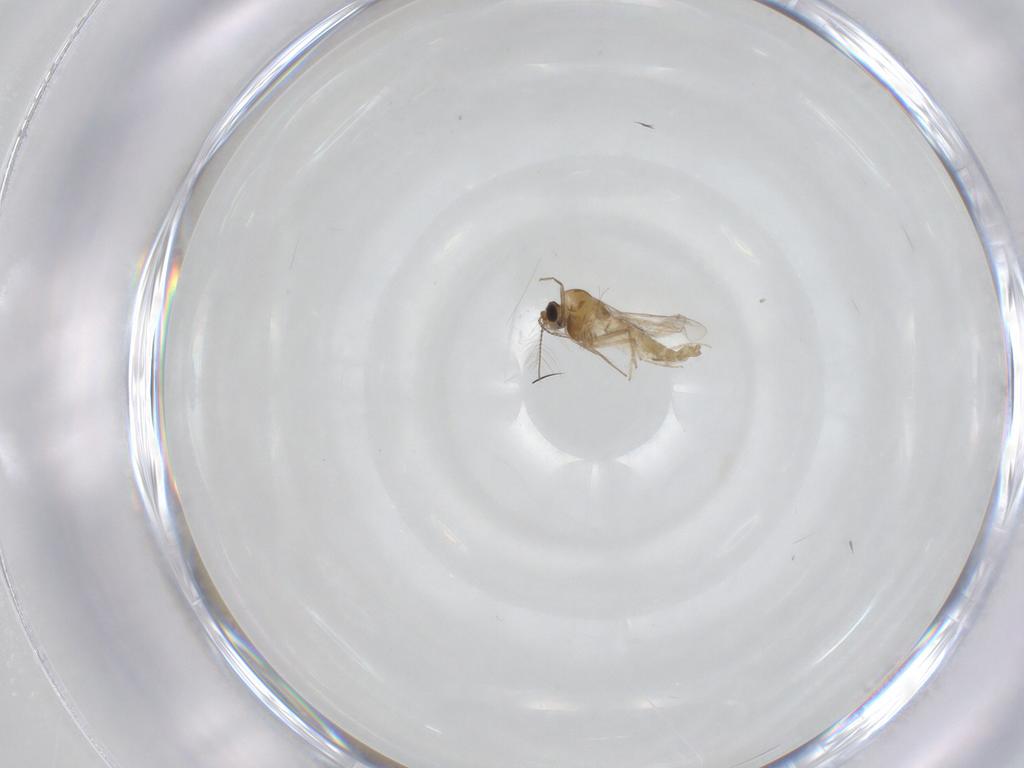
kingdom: Animalia
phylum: Arthropoda
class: Insecta
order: Diptera
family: Chironomidae
